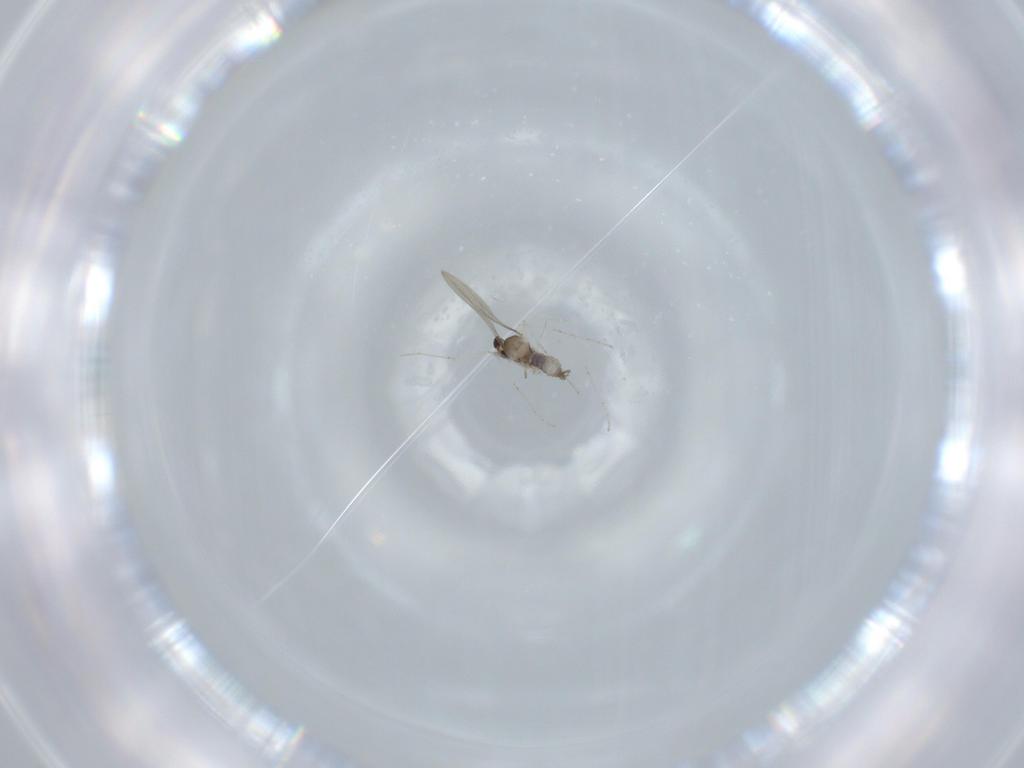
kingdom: Animalia
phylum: Arthropoda
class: Insecta
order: Diptera
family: Cecidomyiidae
